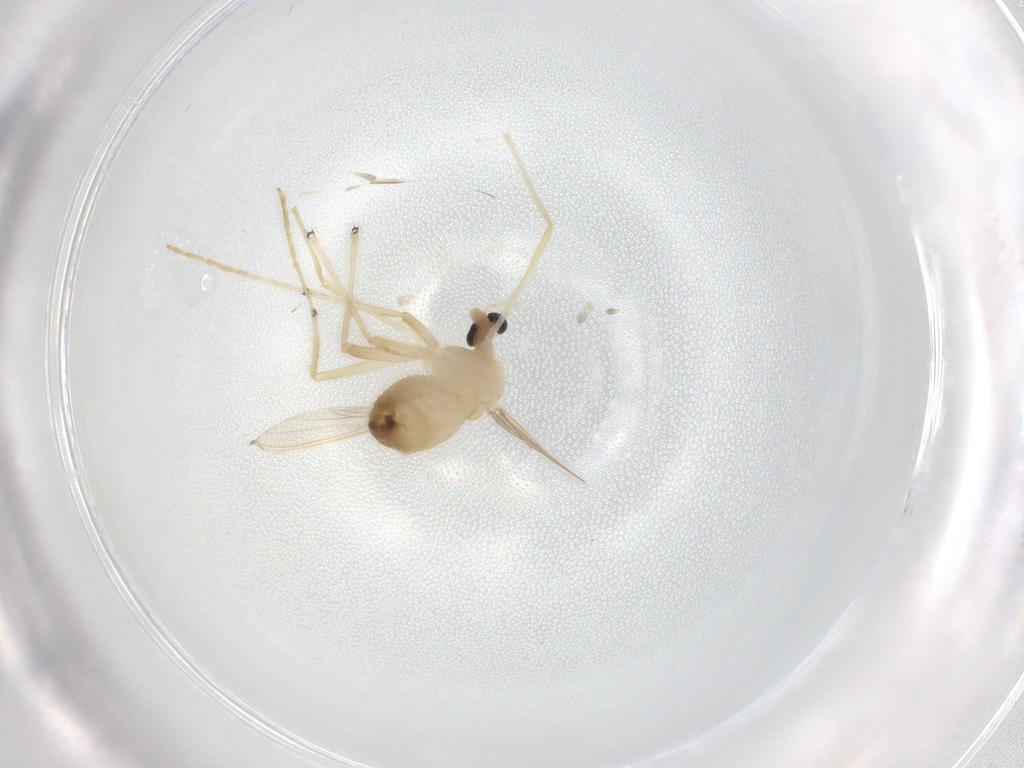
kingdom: Animalia
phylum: Arthropoda
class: Insecta
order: Diptera
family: Chironomidae
